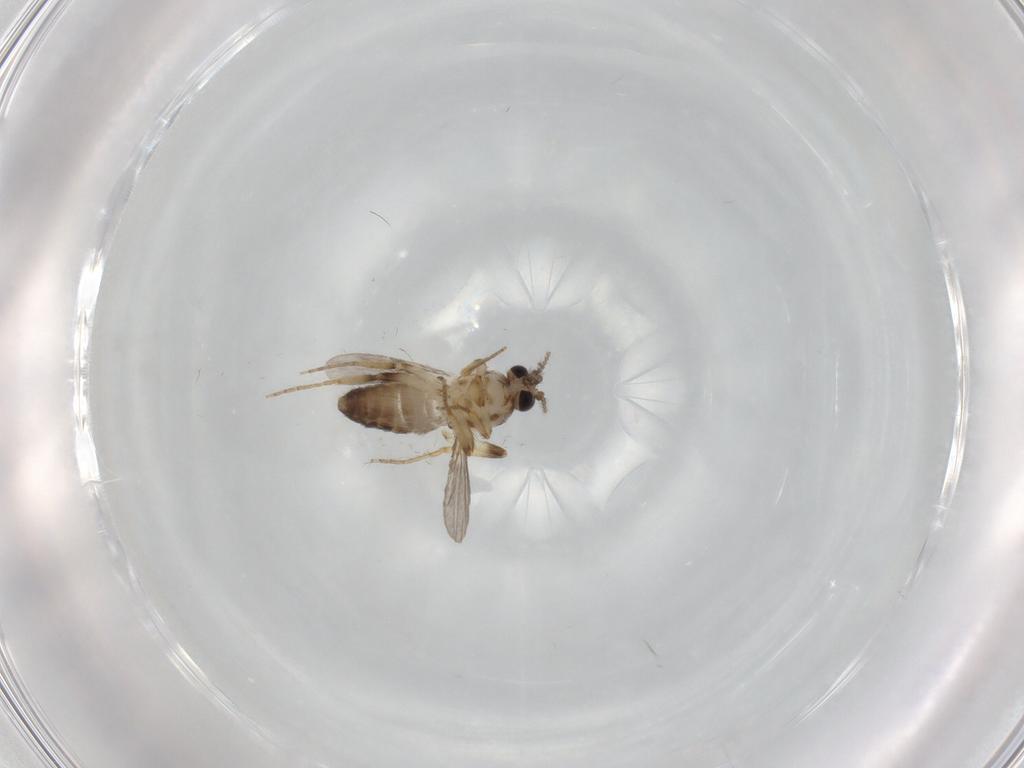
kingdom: Animalia
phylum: Arthropoda
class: Insecta
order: Diptera
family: Ceratopogonidae
